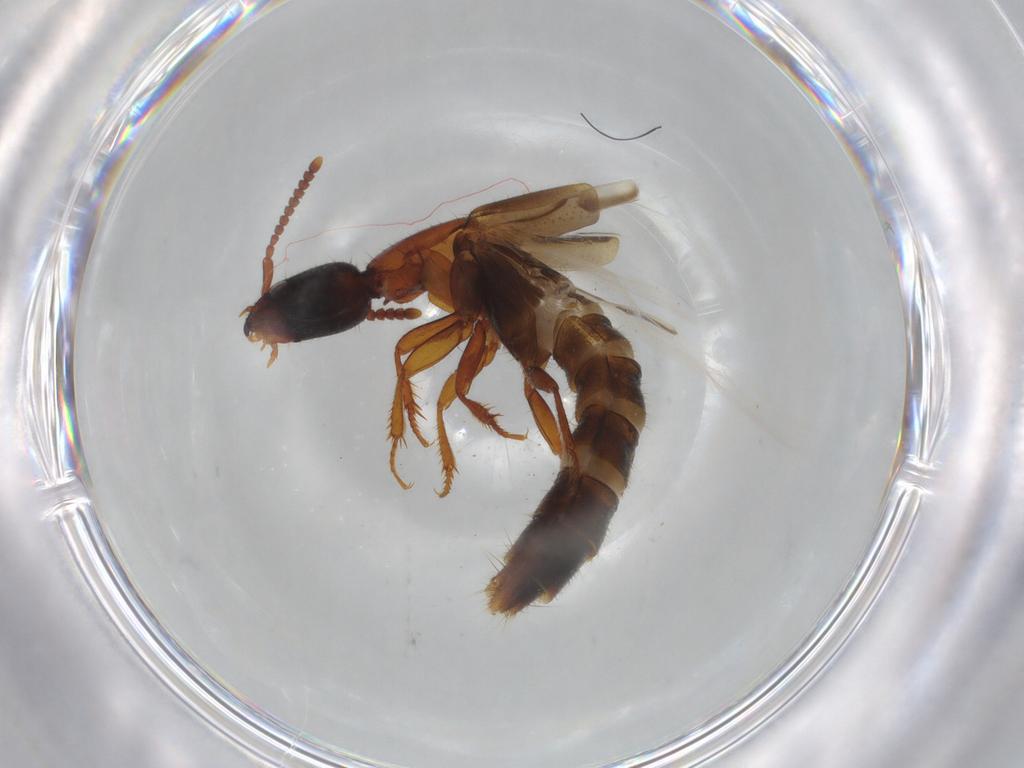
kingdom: Animalia
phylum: Arthropoda
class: Insecta
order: Coleoptera
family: Staphylinidae
